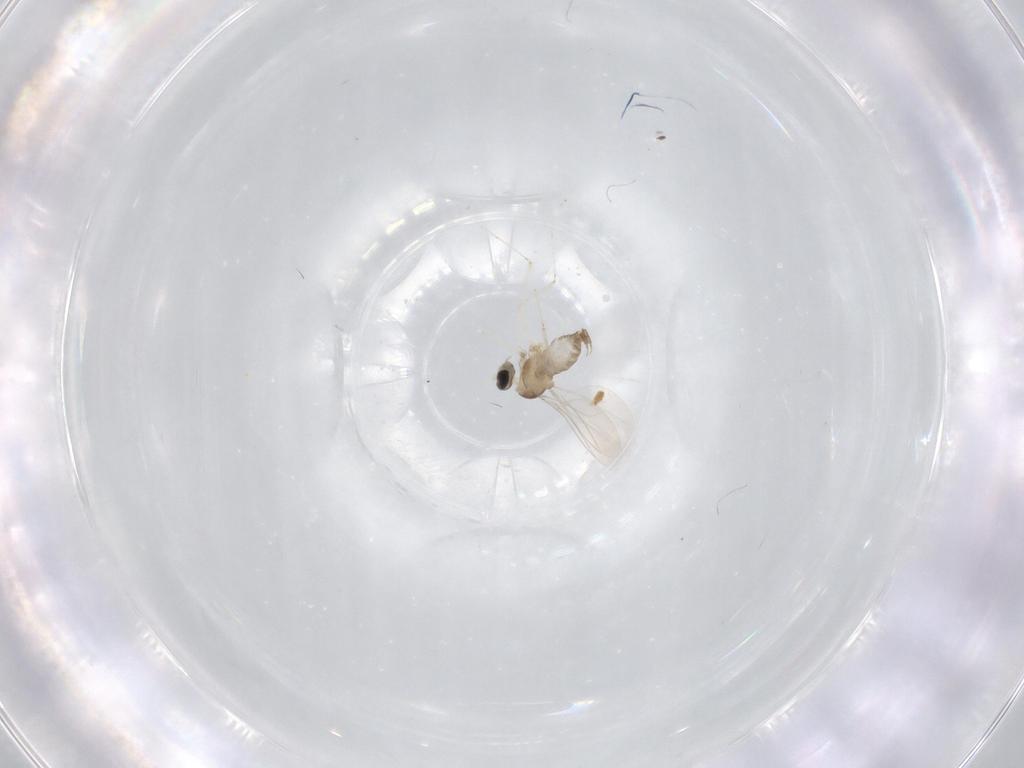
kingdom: Animalia
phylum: Arthropoda
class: Insecta
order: Diptera
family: Cecidomyiidae
